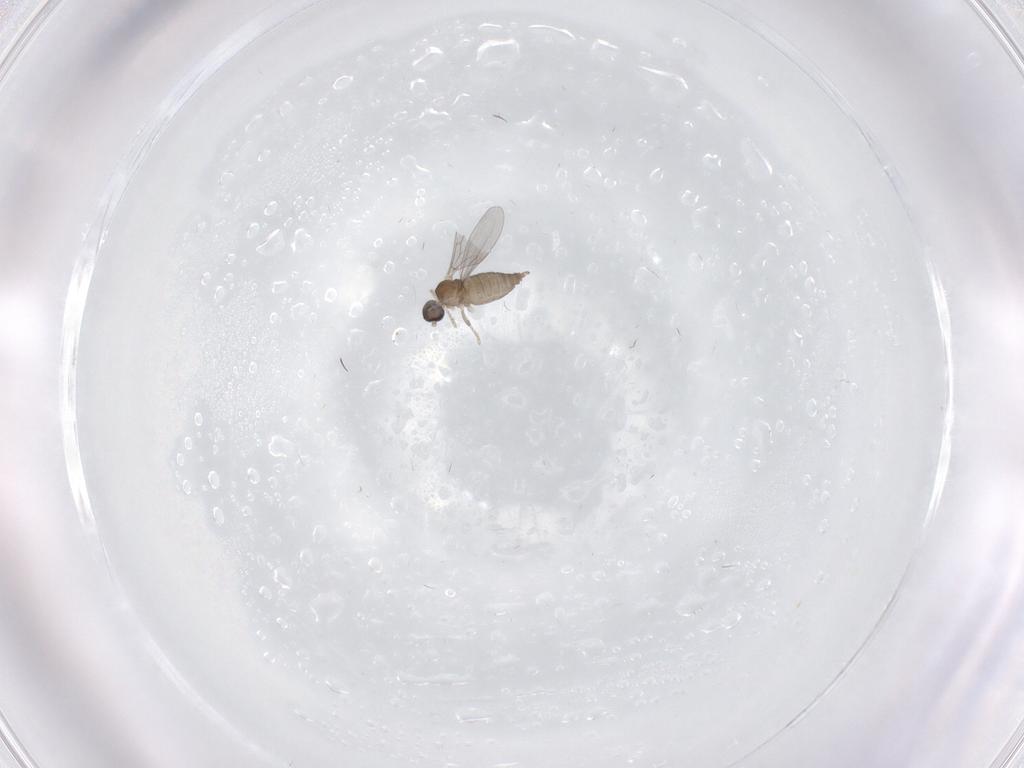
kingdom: Animalia
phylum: Arthropoda
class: Insecta
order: Diptera
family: Cecidomyiidae
